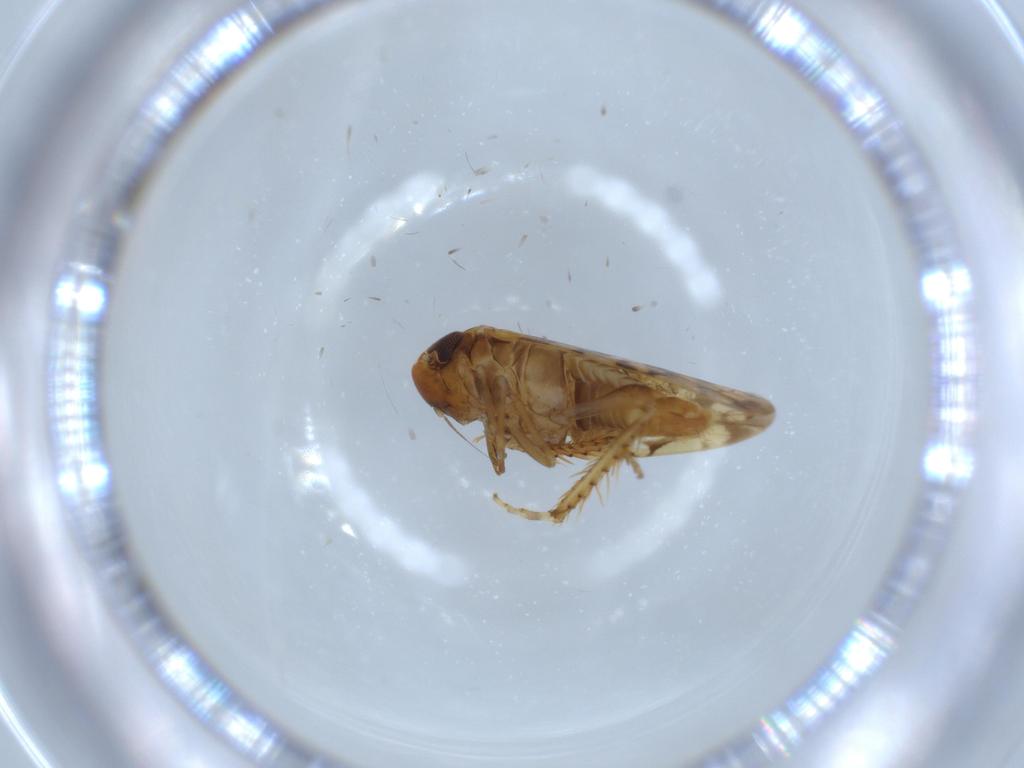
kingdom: Animalia
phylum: Arthropoda
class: Insecta
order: Hemiptera
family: Cicadellidae
